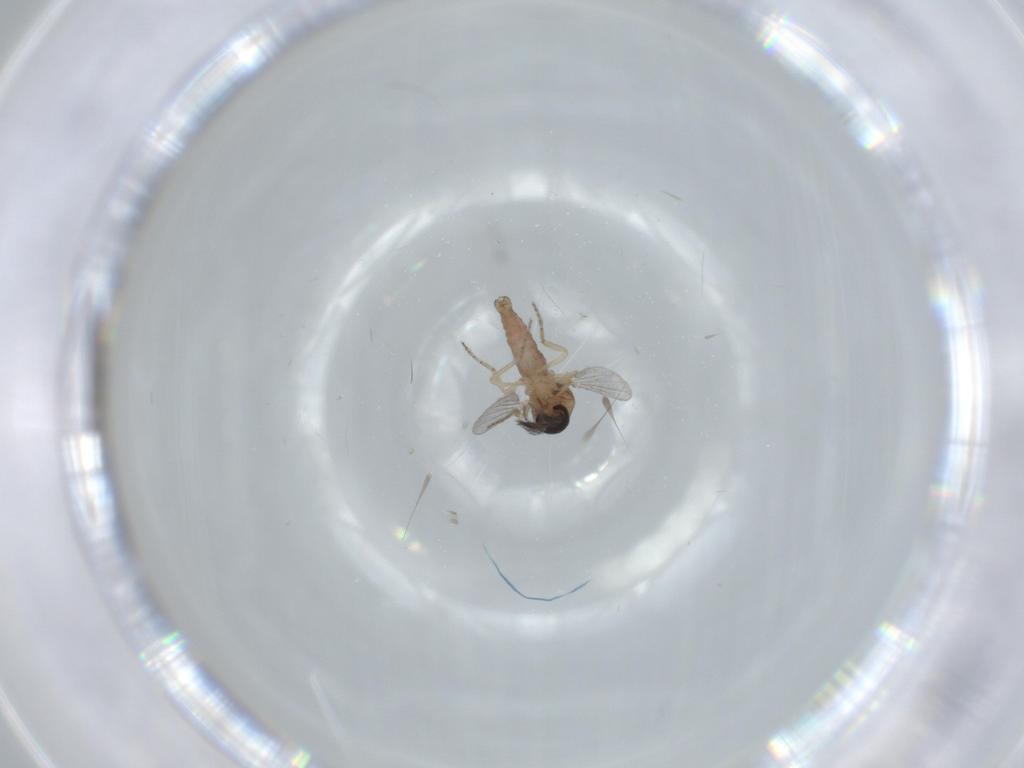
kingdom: Animalia
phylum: Arthropoda
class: Insecta
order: Diptera
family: Ceratopogonidae
